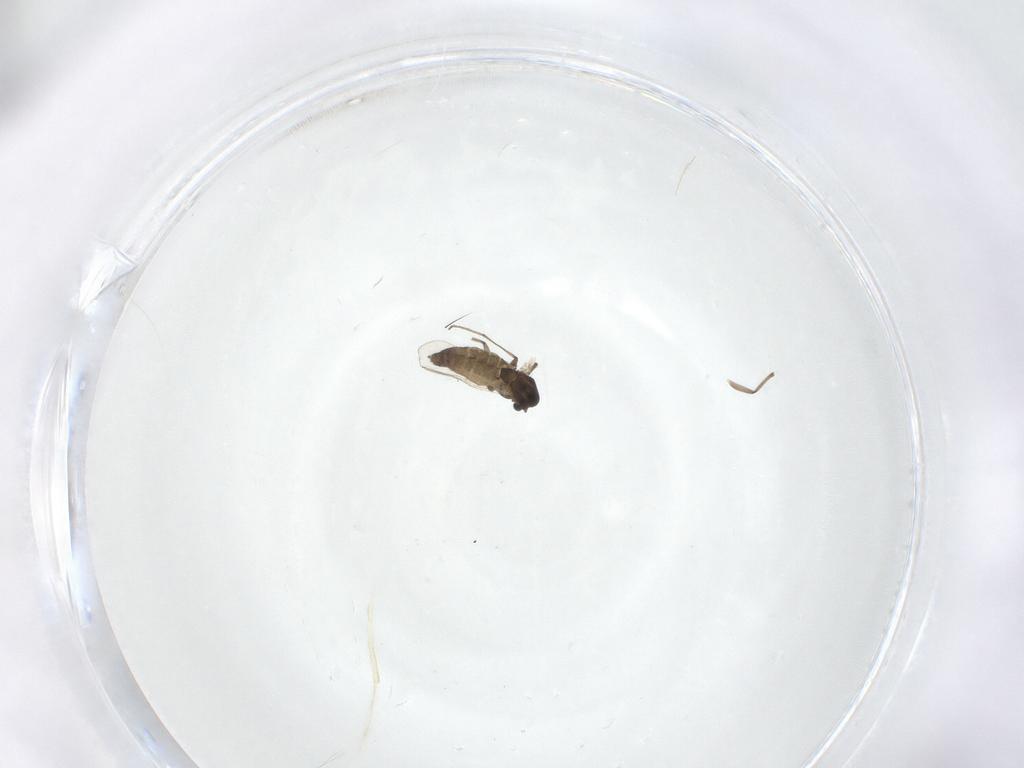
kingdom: Animalia
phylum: Arthropoda
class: Insecta
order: Diptera
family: Chironomidae
